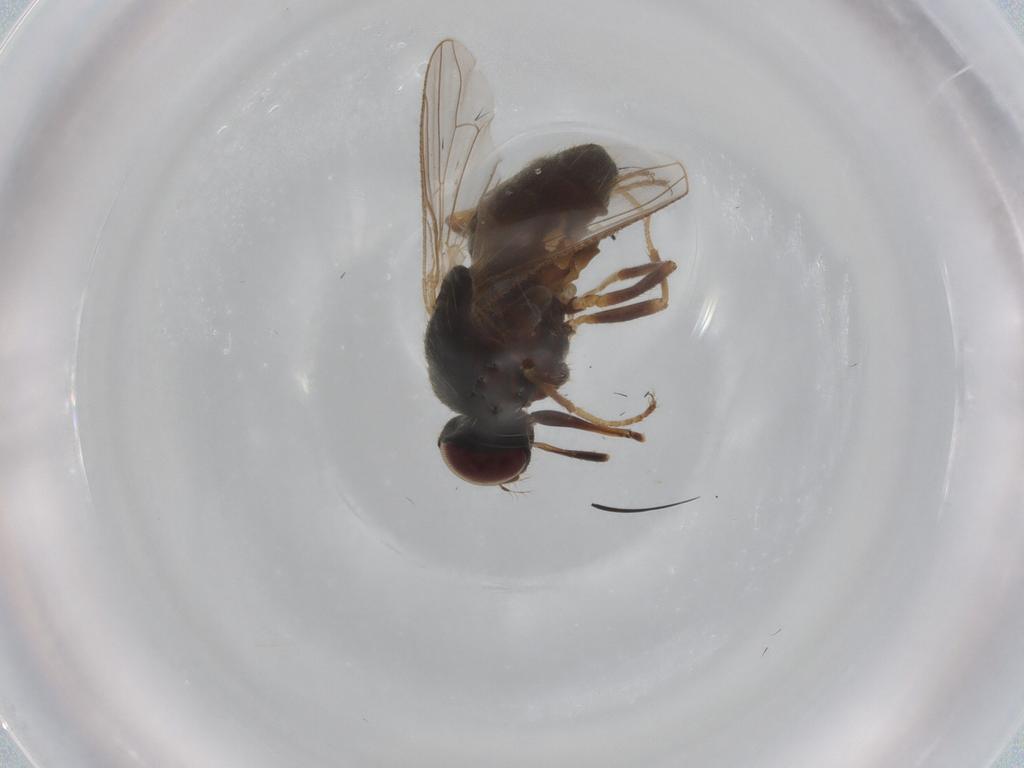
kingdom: Animalia
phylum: Arthropoda
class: Insecta
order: Diptera
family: Muscidae
